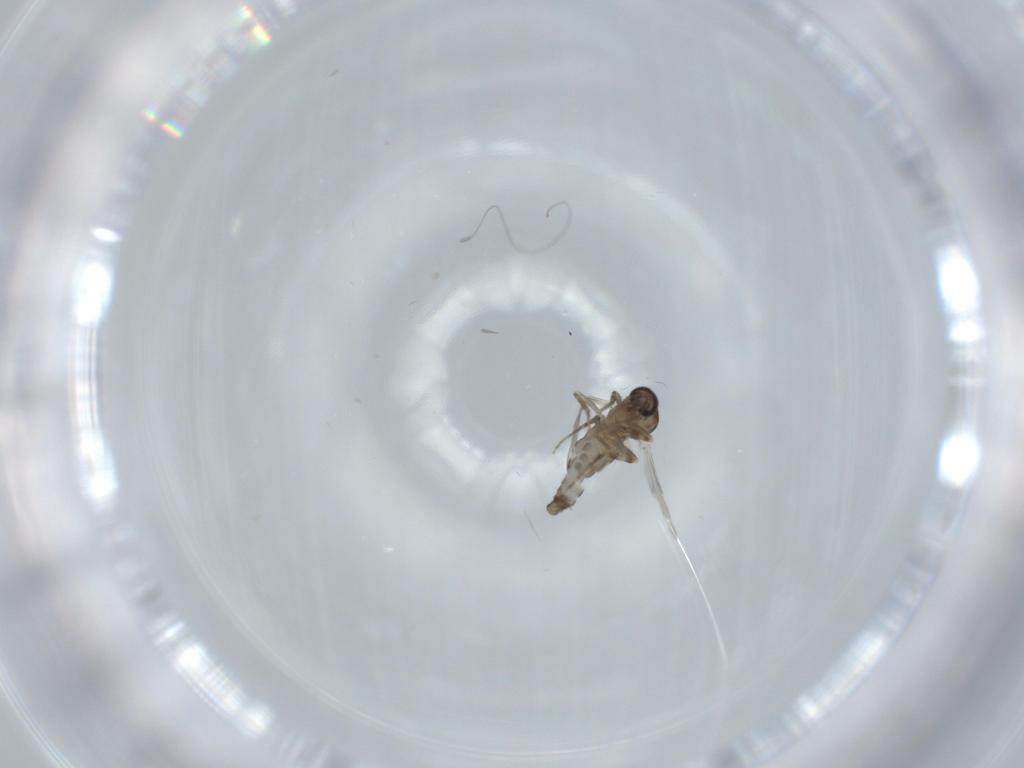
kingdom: Animalia
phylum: Arthropoda
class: Insecta
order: Diptera
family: Ceratopogonidae
